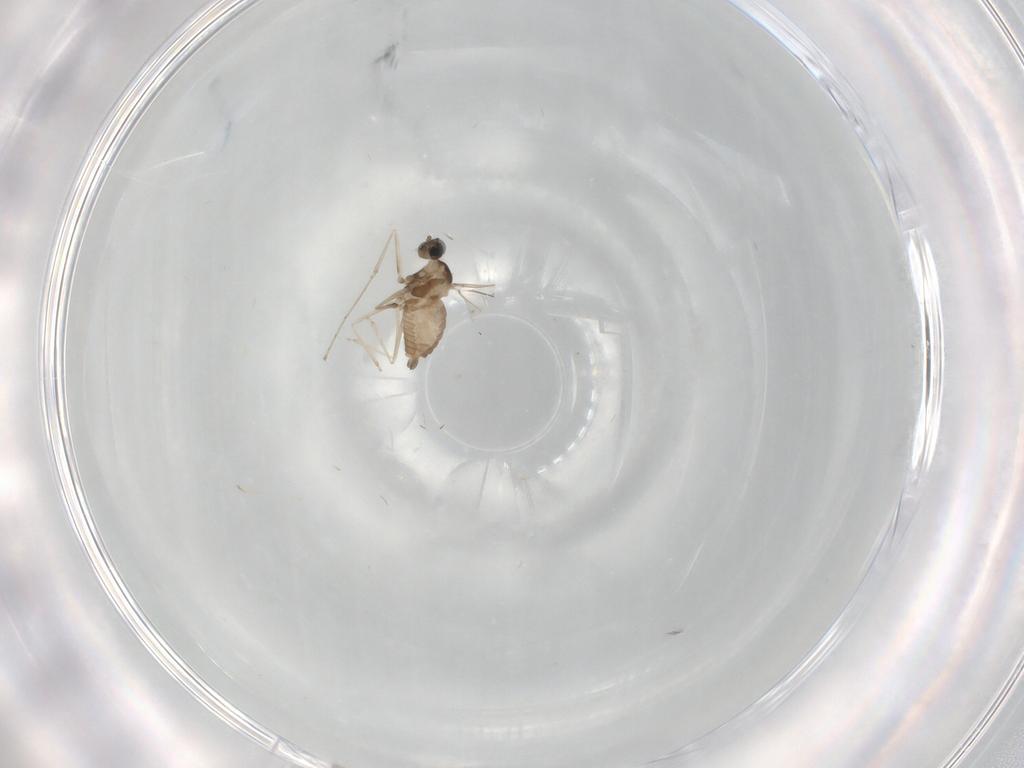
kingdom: Animalia
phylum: Arthropoda
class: Insecta
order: Diptera
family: Cecidomyiidae
